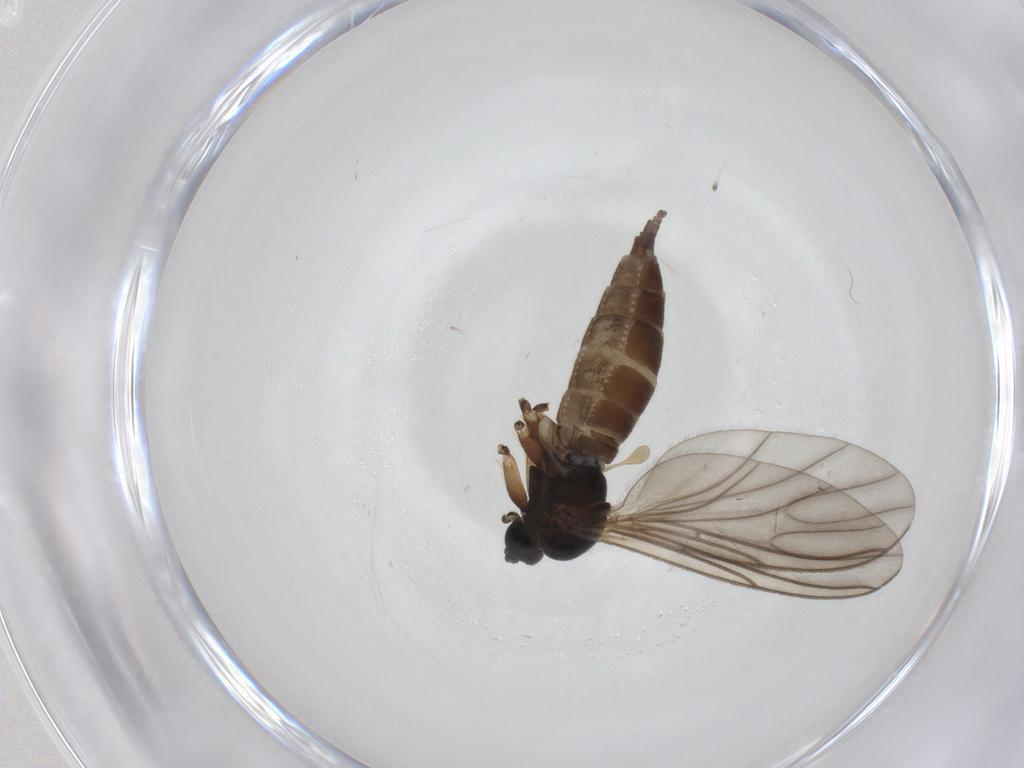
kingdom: Animalia
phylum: Arthropoda
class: Insecta
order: Diptera
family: Sciaridae
